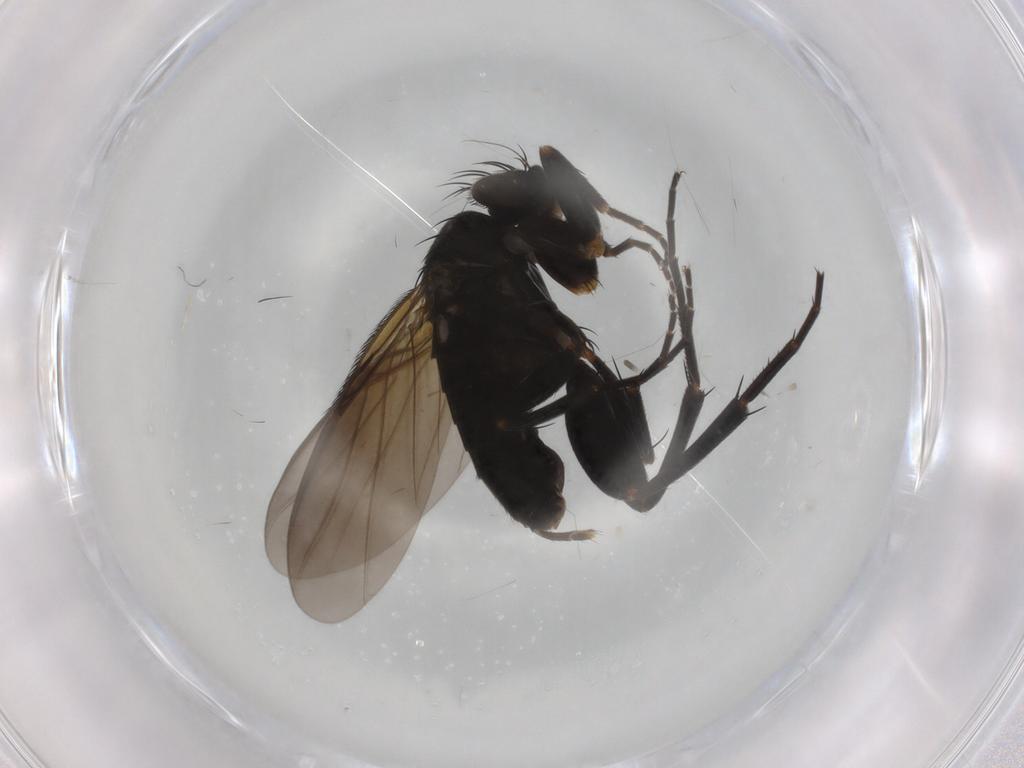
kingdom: Animalia
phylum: Arthropoda
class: Insecta
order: Diptera
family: Phoridae
